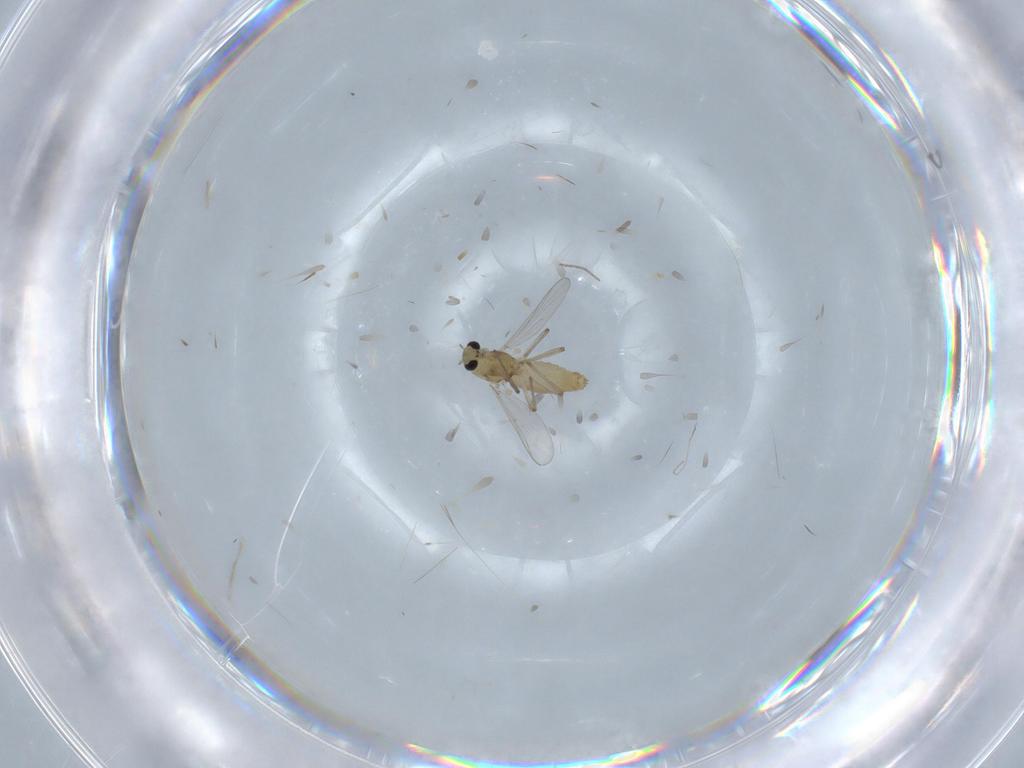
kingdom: Animalia
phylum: Arthropoda
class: Insecta
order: Diptera
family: Chironomidae
